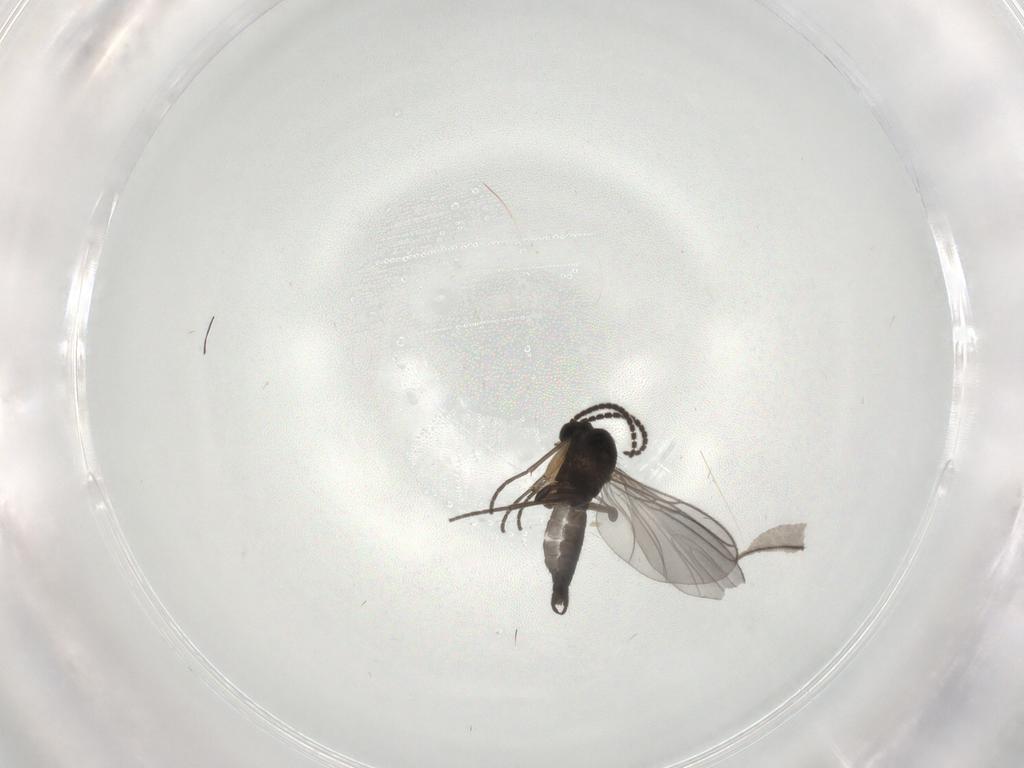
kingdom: Animalia
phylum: Arthropoda
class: Insecta
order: Diptera
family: Sciaridae
